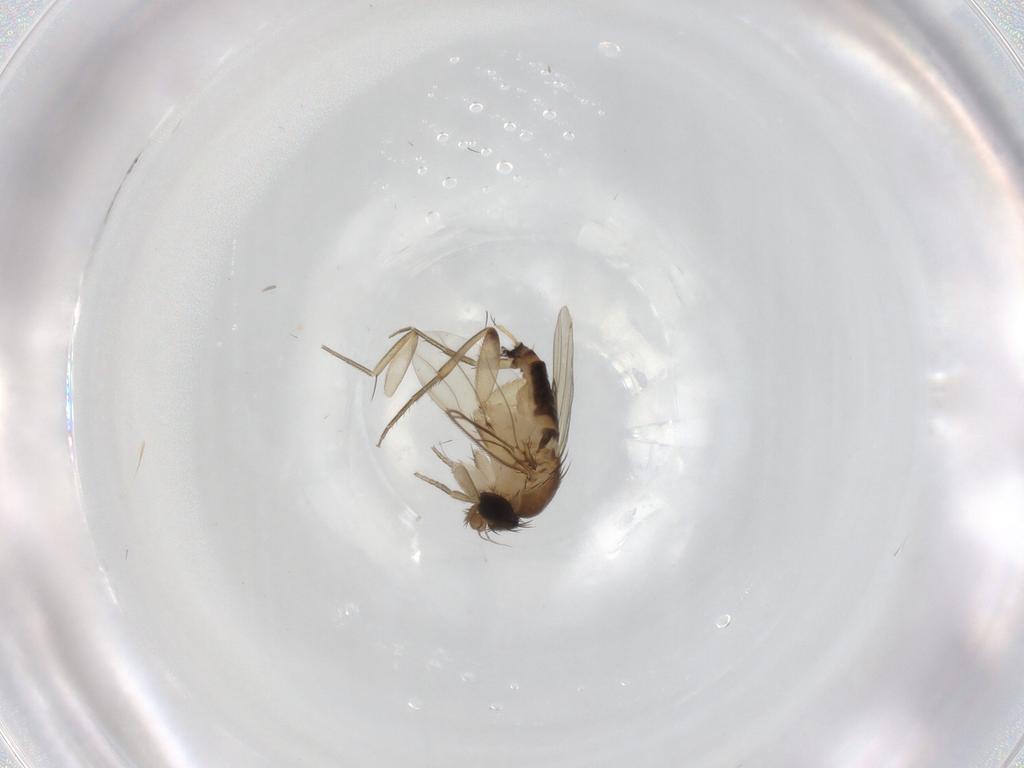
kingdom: Animalia
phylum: Arthropoda
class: Insecta
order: Diptera
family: Phoridae
